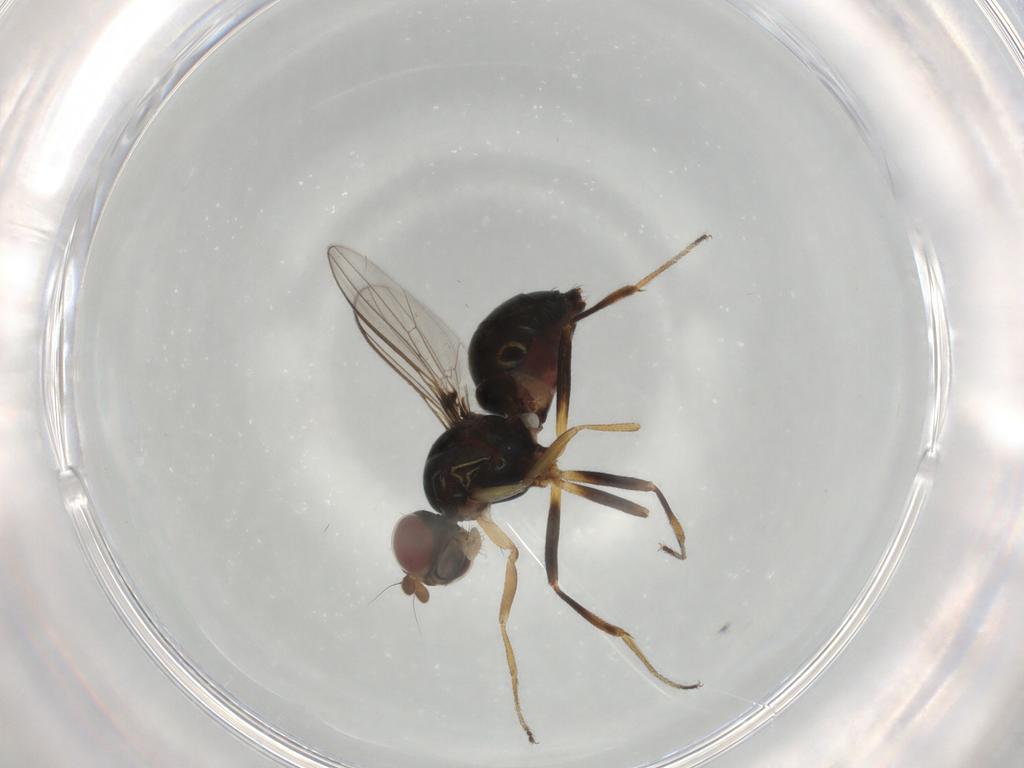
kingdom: Animalia
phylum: Arthropoda
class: Insecta
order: Diptera
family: Sepsidae
